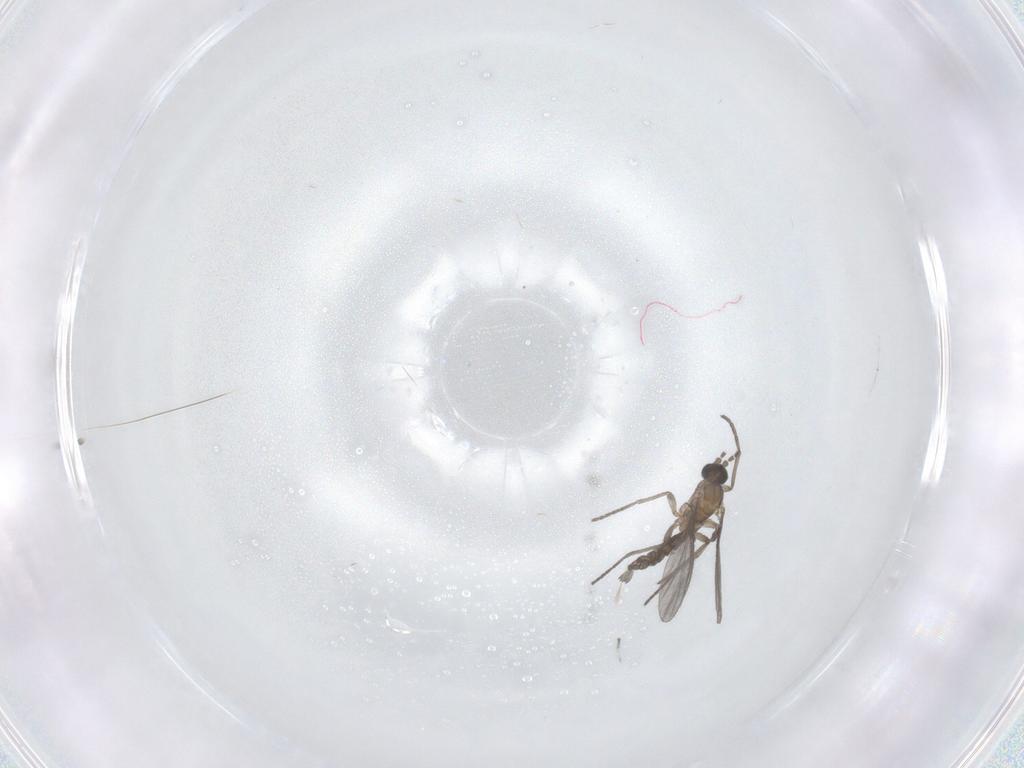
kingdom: Animalia
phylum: Arthropoda
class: Insecta
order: Diptera
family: Sciaridae
